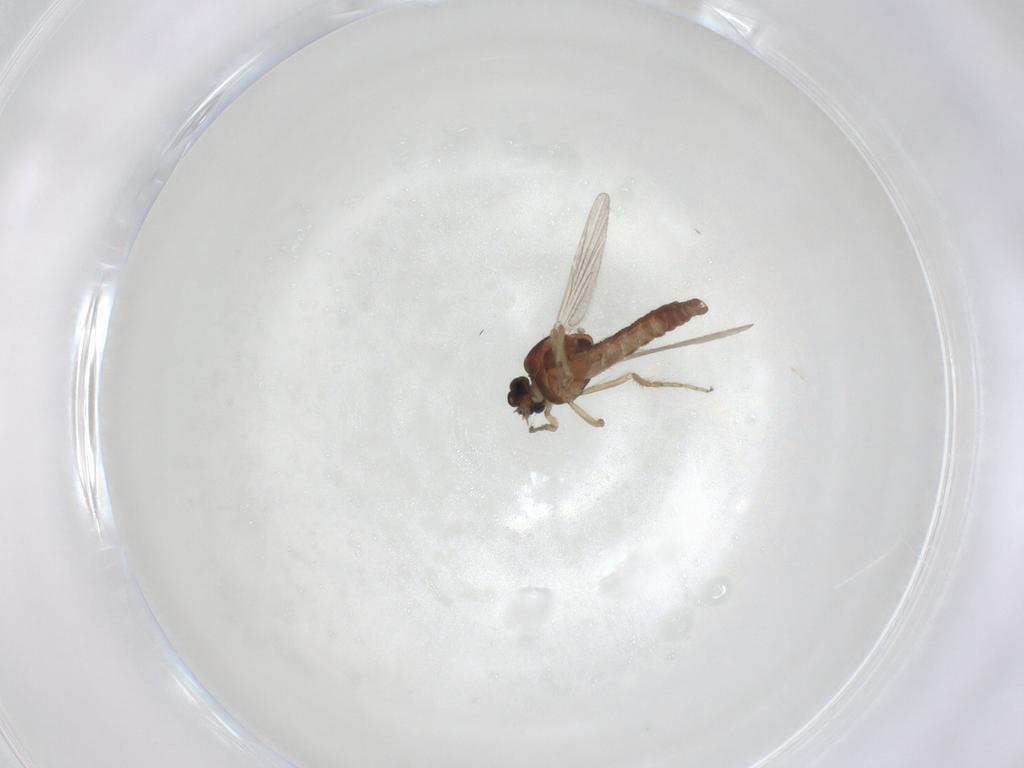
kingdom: Animalia
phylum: Arthropoda
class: Insecta
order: Diptera
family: Ceratopogonidae
